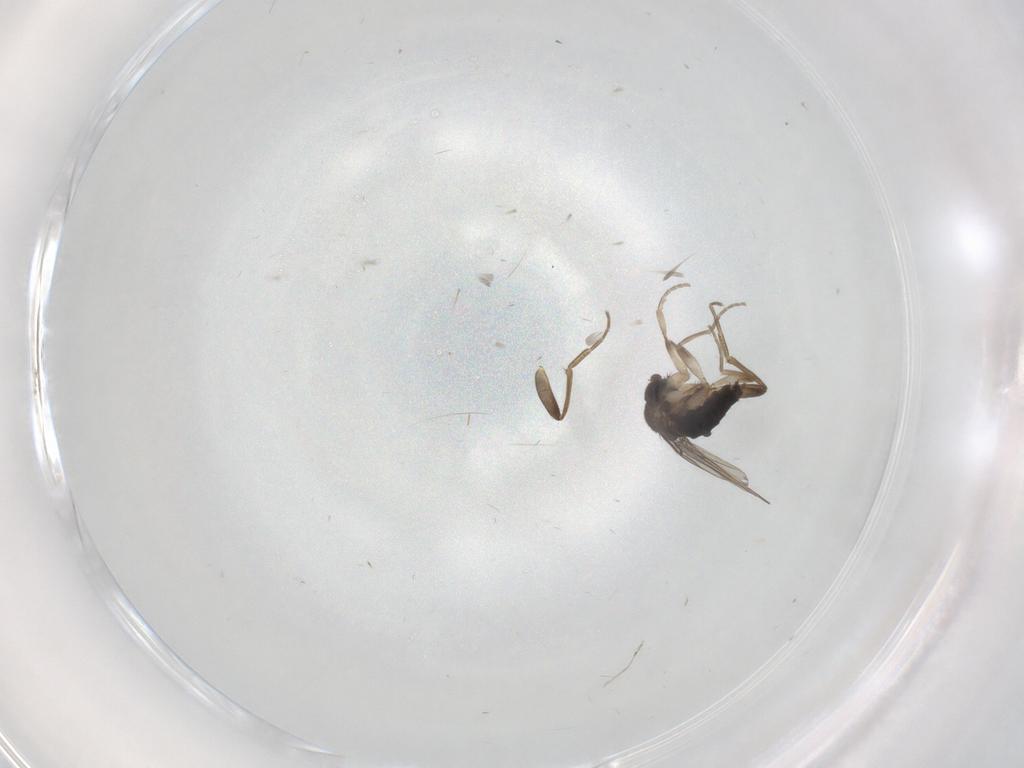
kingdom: Animalia
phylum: Arthropoda
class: Insecta
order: Diptera
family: Phoridae
